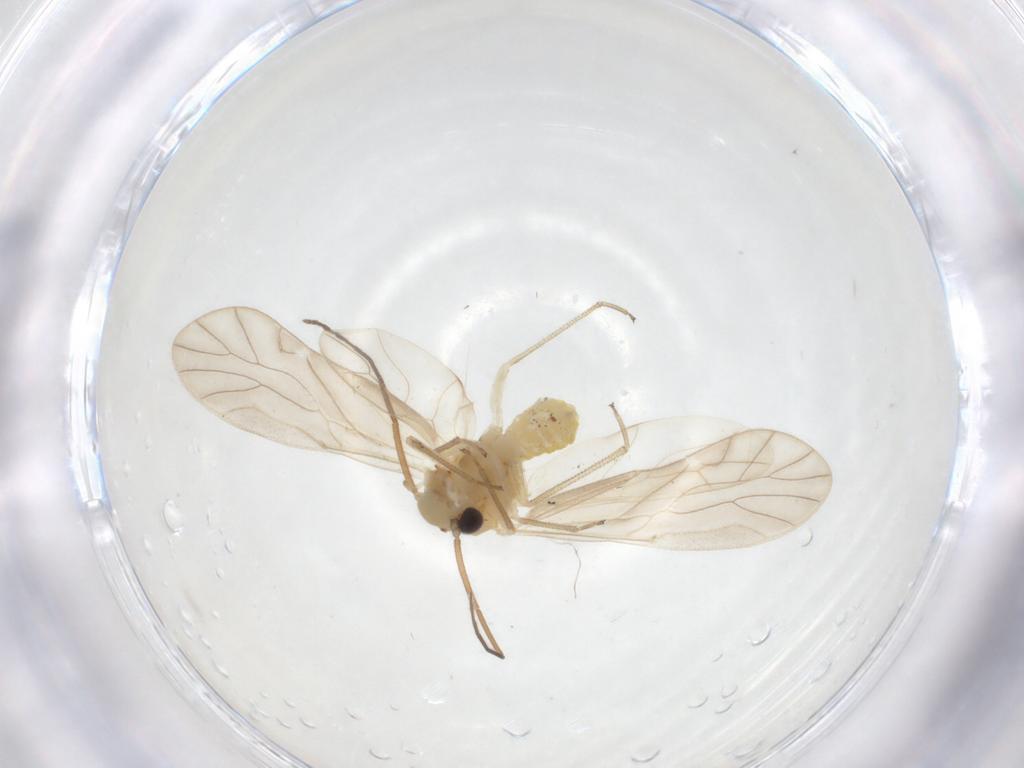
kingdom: Animalia
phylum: Arthropoda
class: Insecta
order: Psocodea
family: Caeciliusidae
